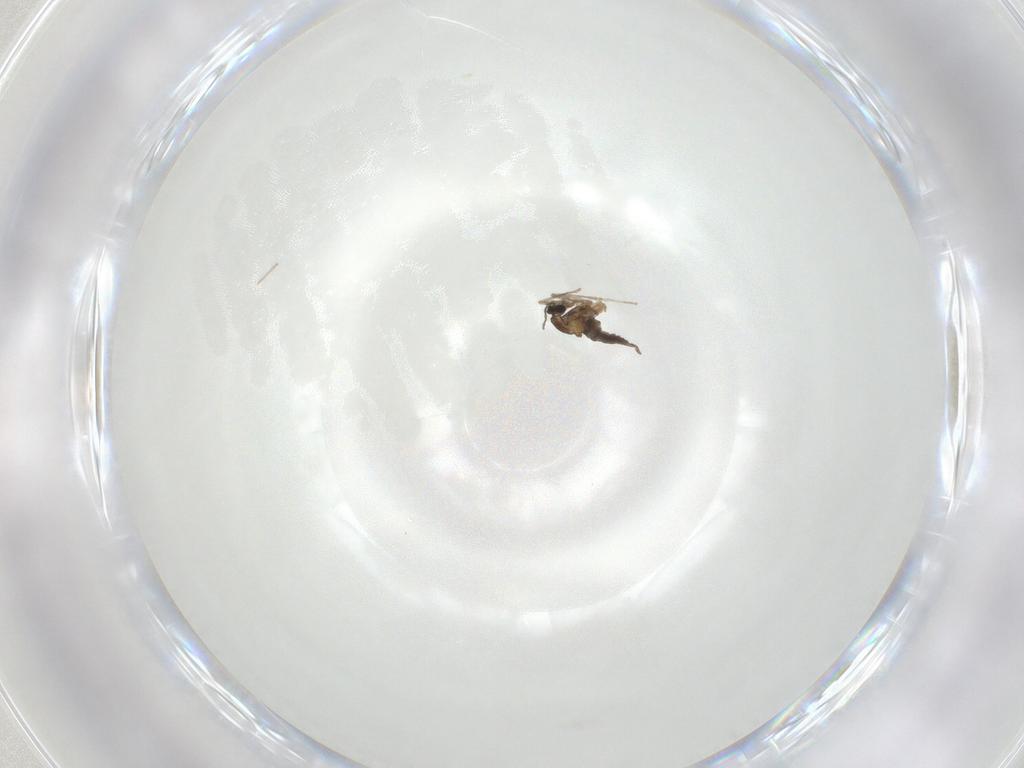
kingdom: Animalia
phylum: Arthropoda
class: Insecta
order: Diptera
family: Cecidomyiidae
